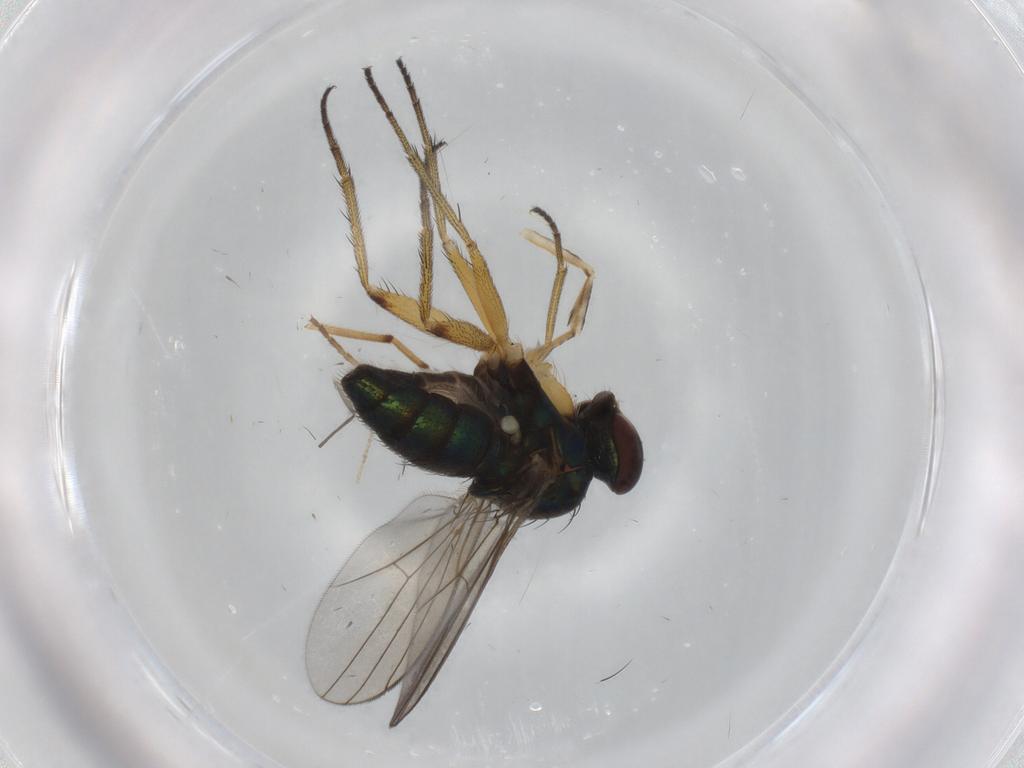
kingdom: Animalia
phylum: Arthropoda
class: Insecta
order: Diptera
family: Chironomidae
